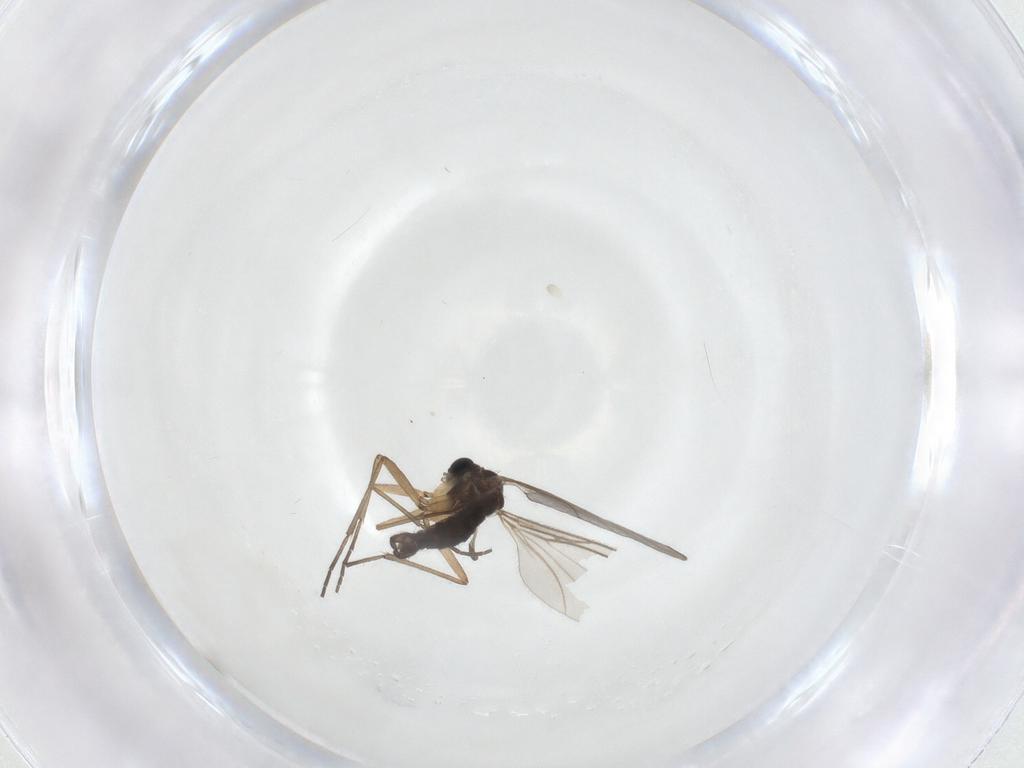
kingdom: Animalia
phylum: Arthropoda
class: Insecta
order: Diptera
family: Sciaridae
